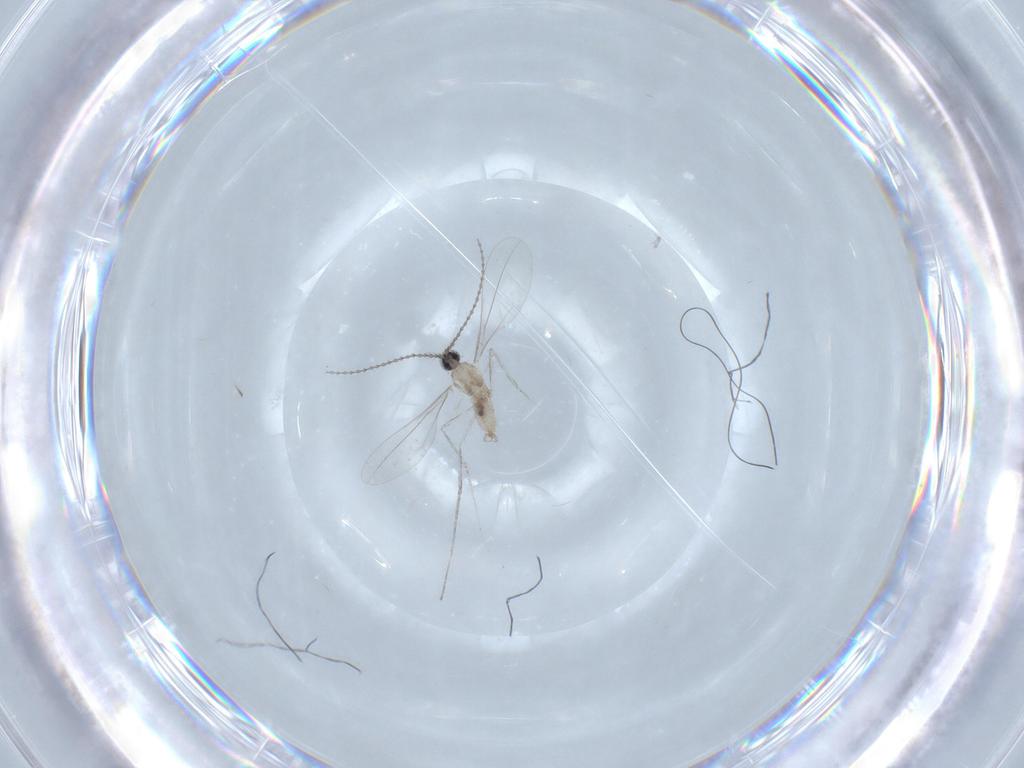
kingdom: Animalia
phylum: Arthropoda
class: Insecta
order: Diptera
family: Cecidomyiidae
